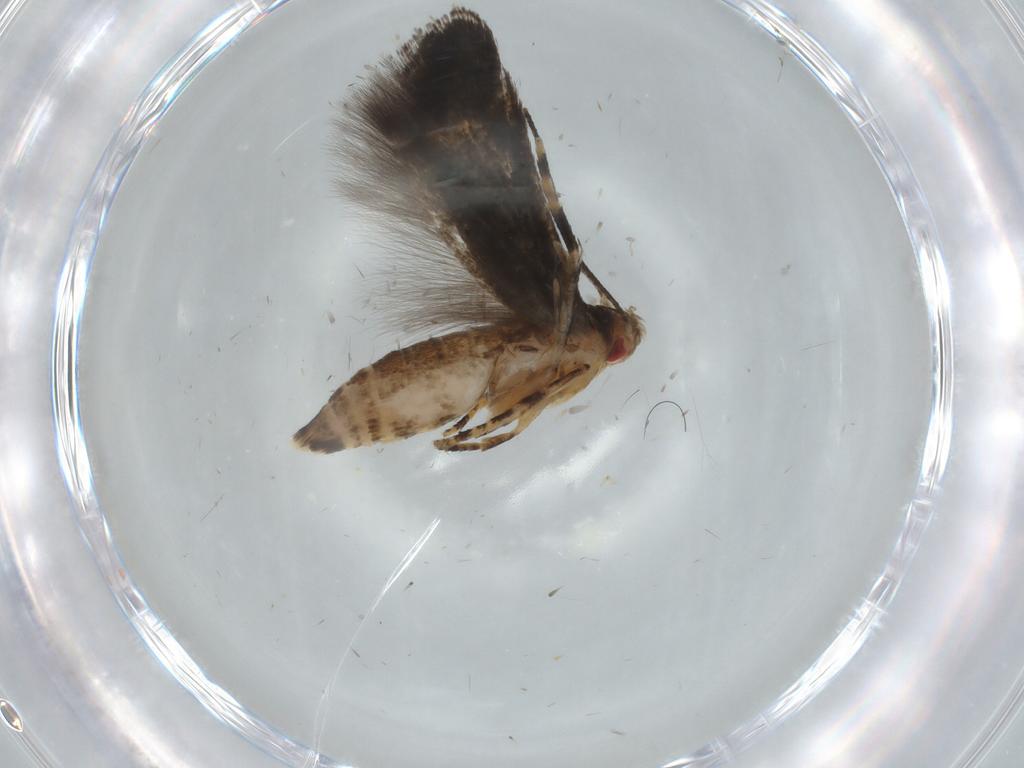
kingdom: Animalia
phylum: Arthropoda
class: Insecta
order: Lepidoptera
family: Momphidae
